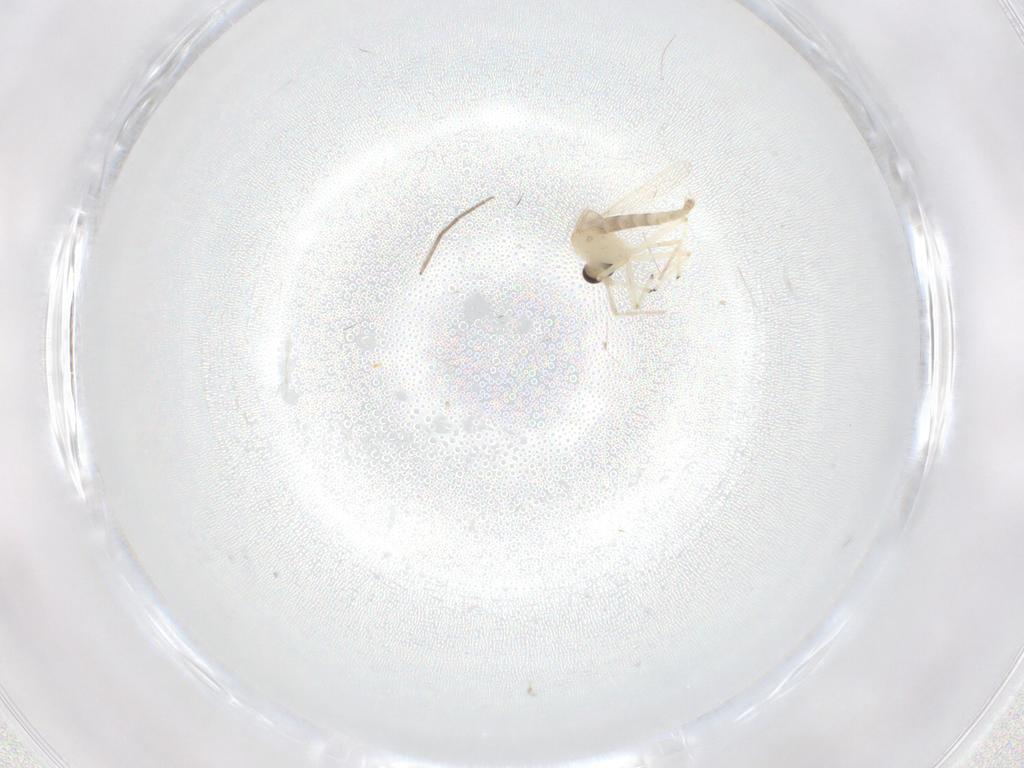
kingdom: Animalia
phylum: Arthropoda
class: Insecta
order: Diptera
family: Chironomidae
